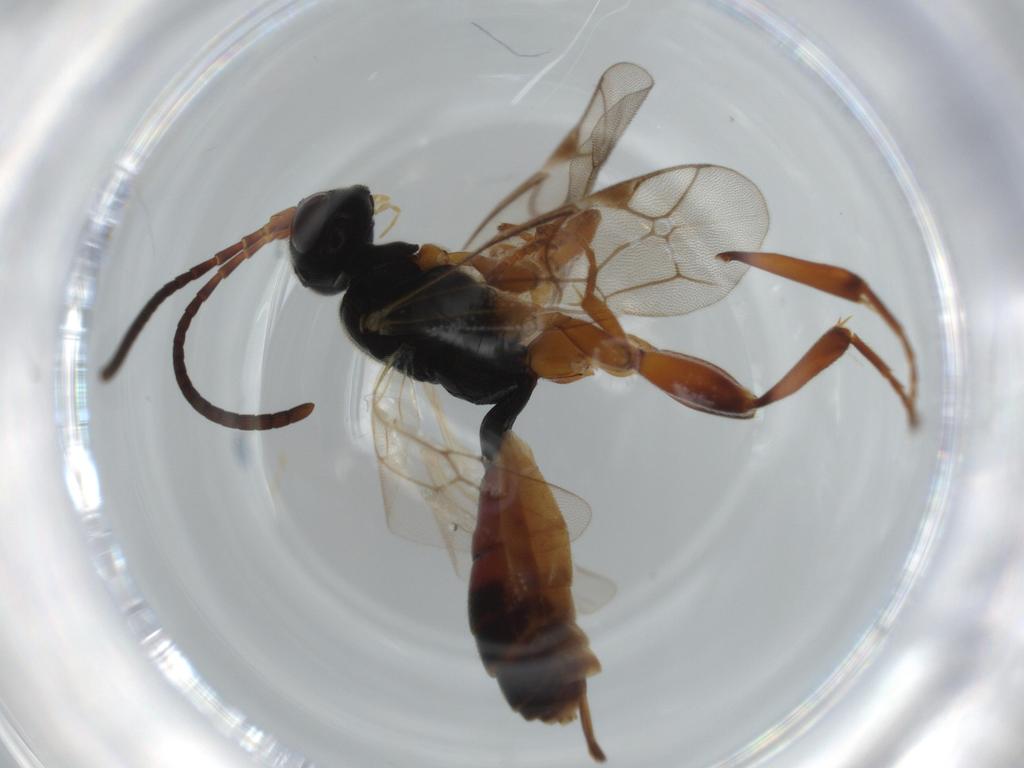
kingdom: Animalia
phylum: Arthropoda
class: Insecta
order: Hymenoptera
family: Ichneumonidae
